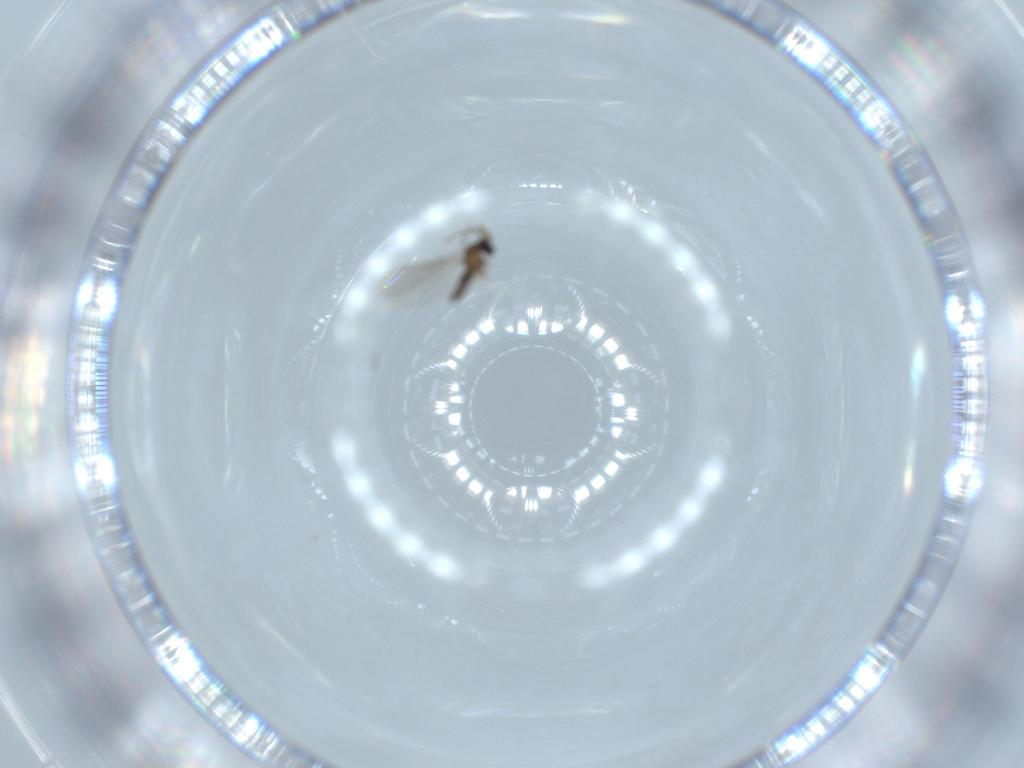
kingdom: Animalia
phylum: Arthropoda
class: Insecta
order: Diptera
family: Cecidomyiidae
